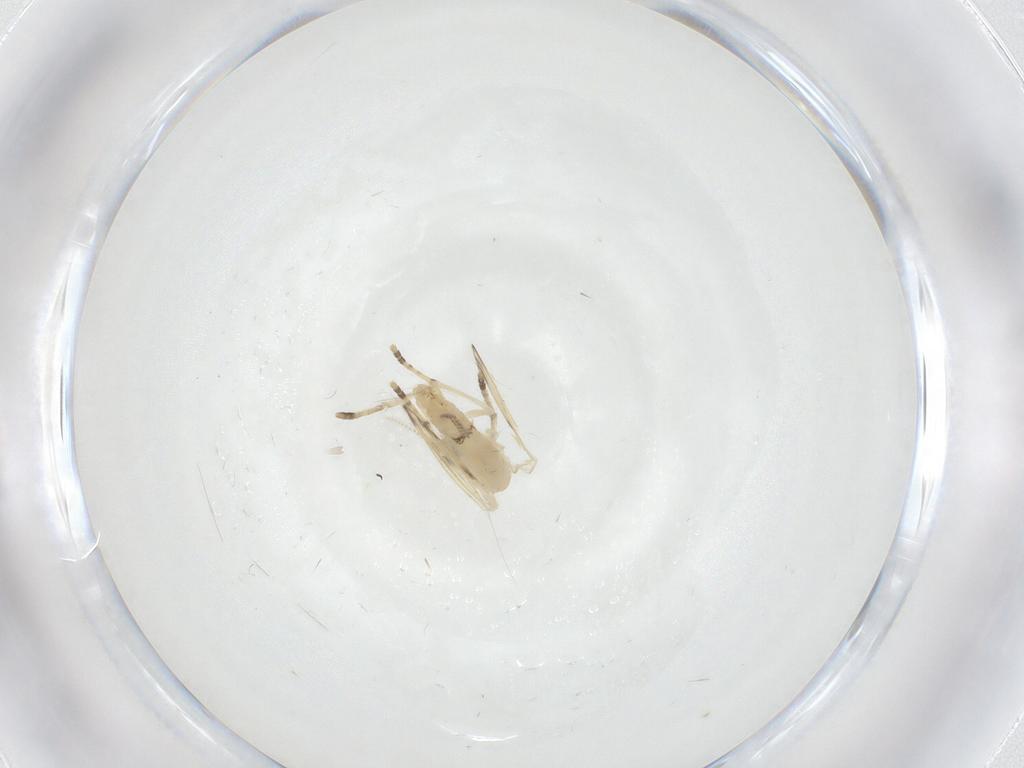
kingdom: Animalia
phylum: Arthropoda
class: Insecta
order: Diptera
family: Psychodidae
